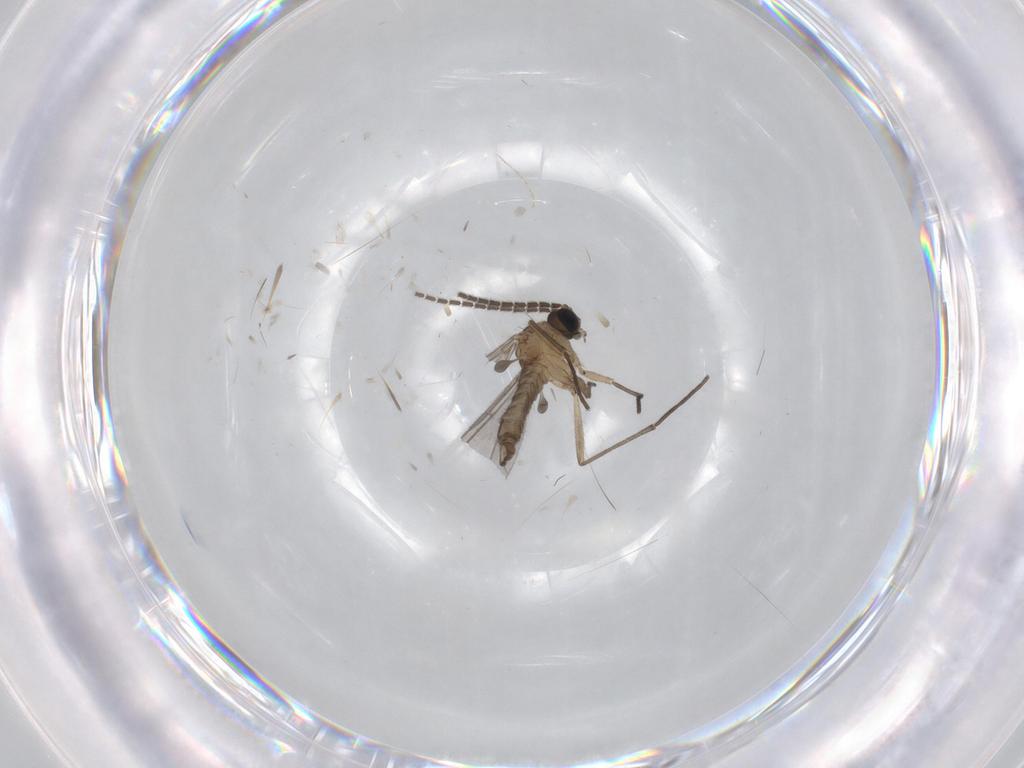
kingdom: Animalia
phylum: Arthropoda
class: Insecta
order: Diptera
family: Sciaridae
